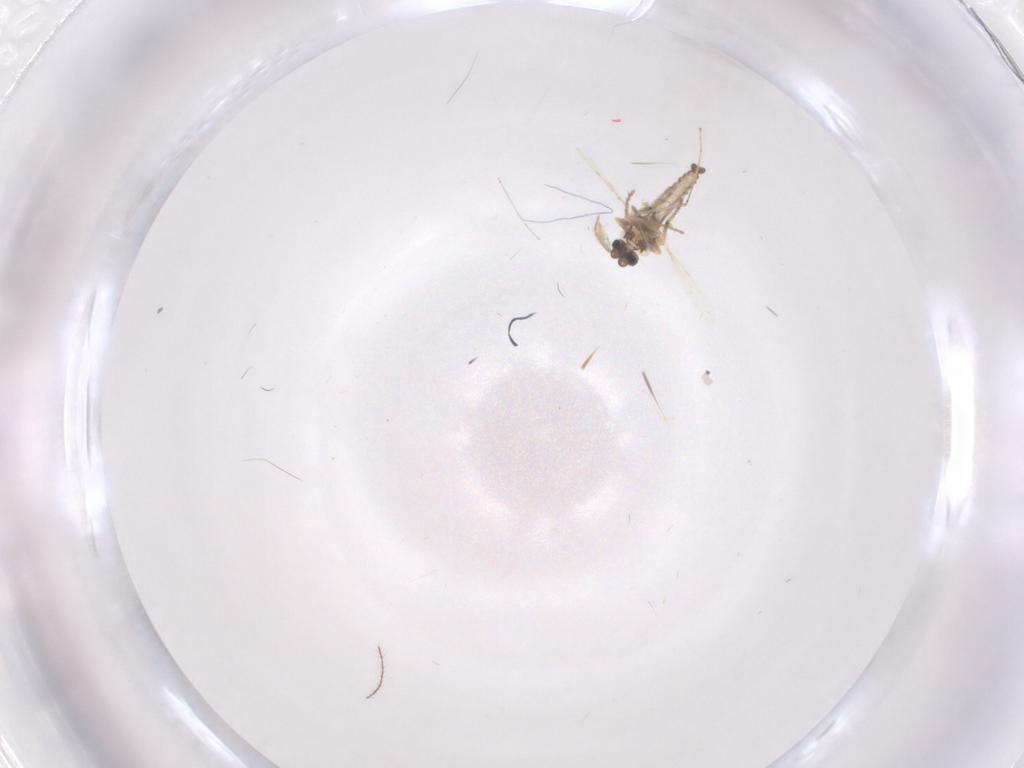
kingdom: Animalia
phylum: Arthropoda
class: Insecta
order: Diptera
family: Ceratopogonidae
